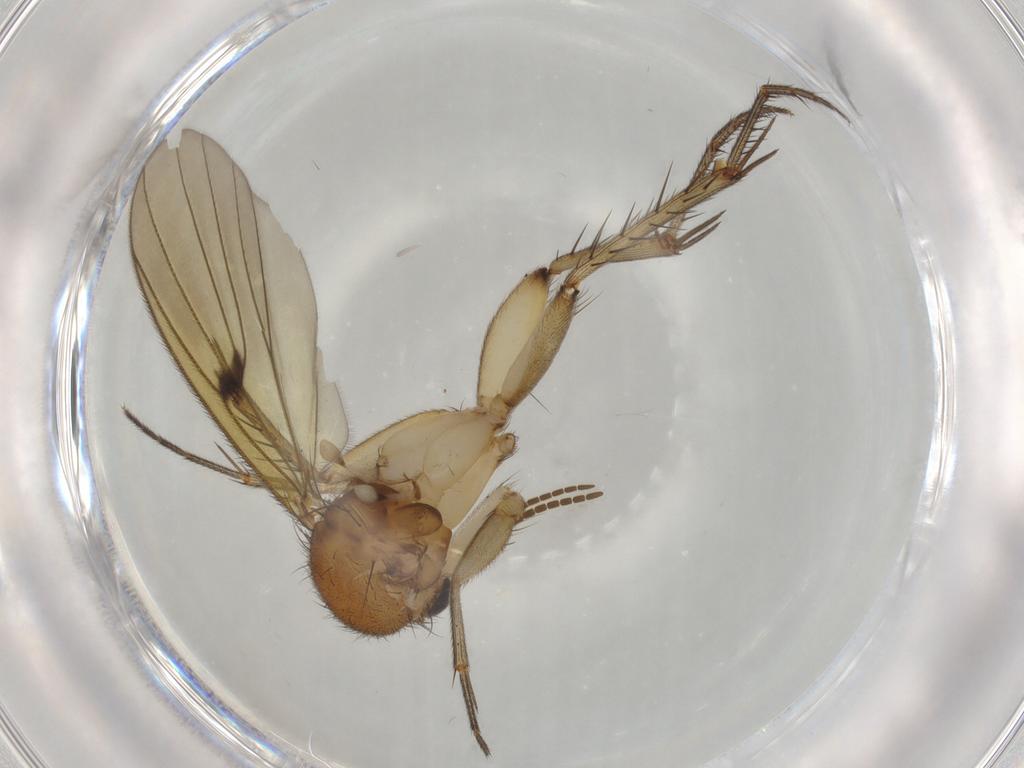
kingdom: Animalia
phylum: Arthropoda
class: Insecta
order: Diptera
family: Mycetophilidae
